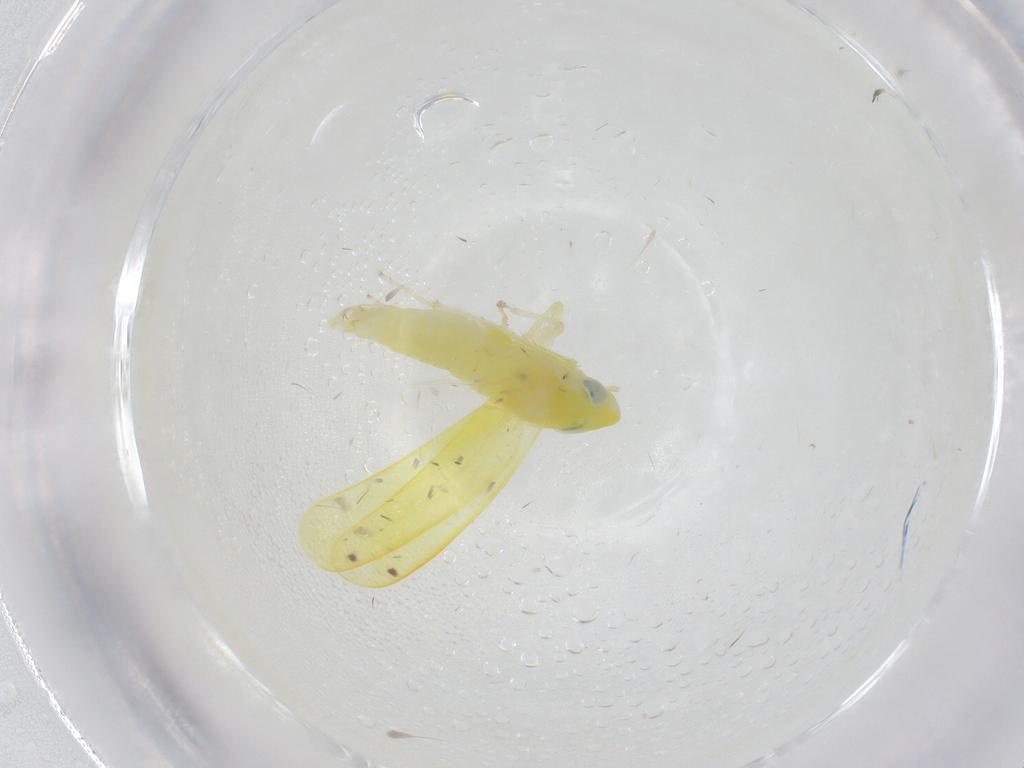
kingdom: Animalia
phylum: Arthropoda
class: Insecta
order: Hemiptera
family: Cicadellidae
